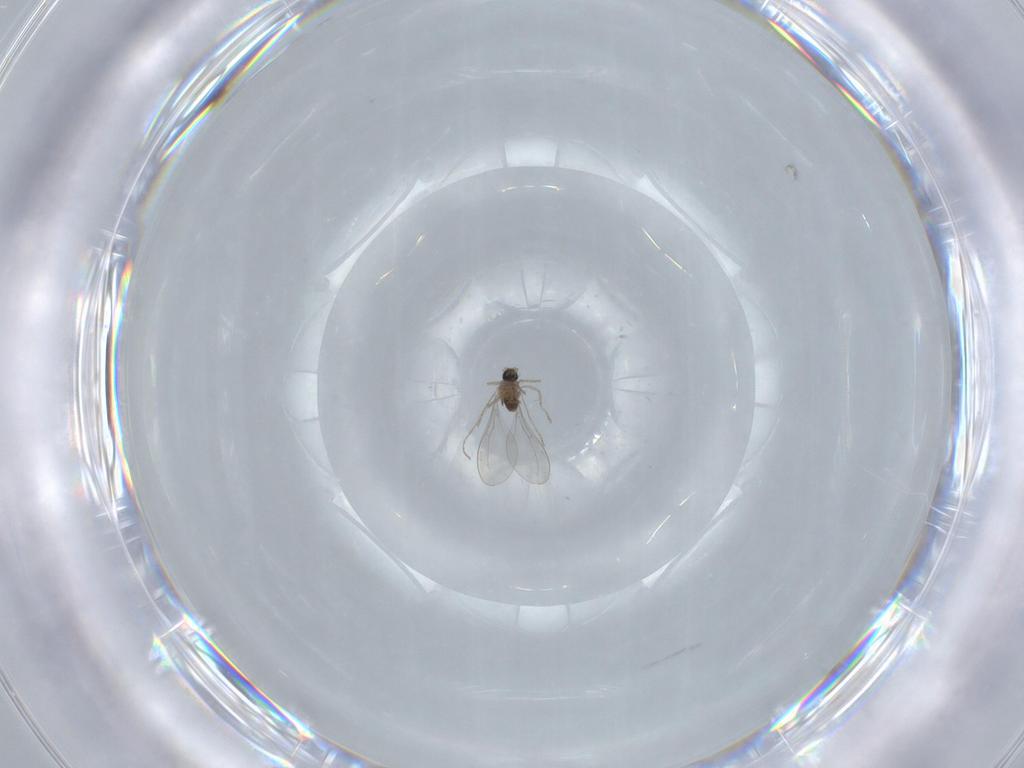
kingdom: Animalia
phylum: Arthropoda
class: Insecta
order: Diptera
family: Cecidomyiidae
